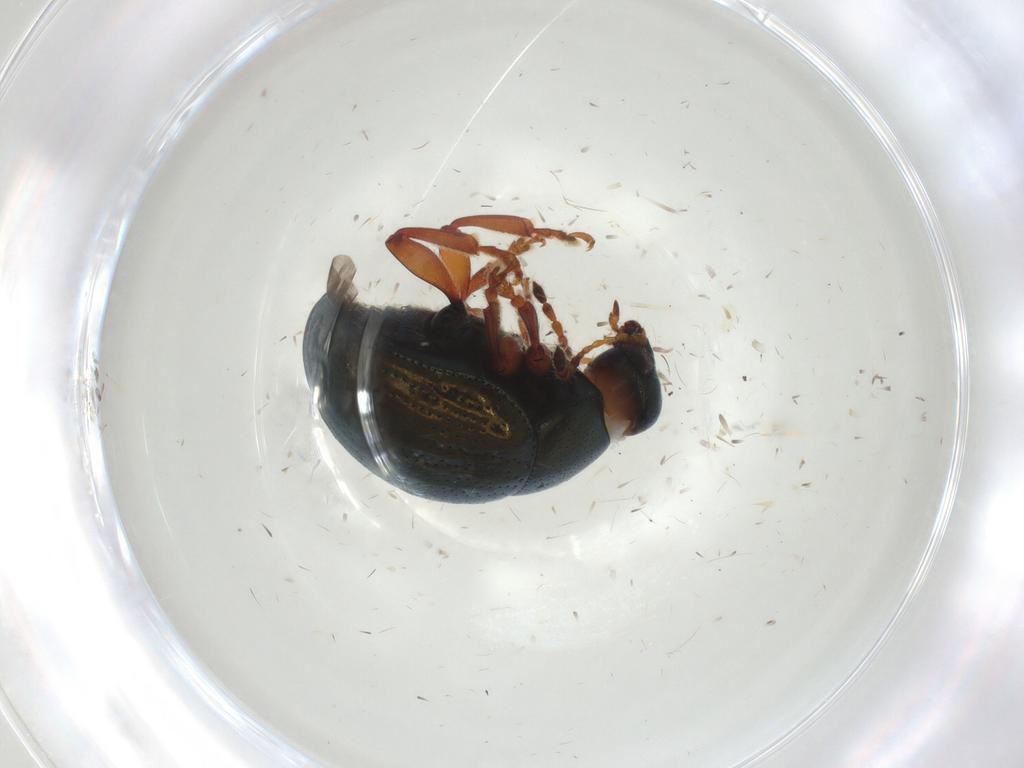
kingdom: Animalia
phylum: Arthropoda
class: Insecta
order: Coleoptera
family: Chrysomelidae
